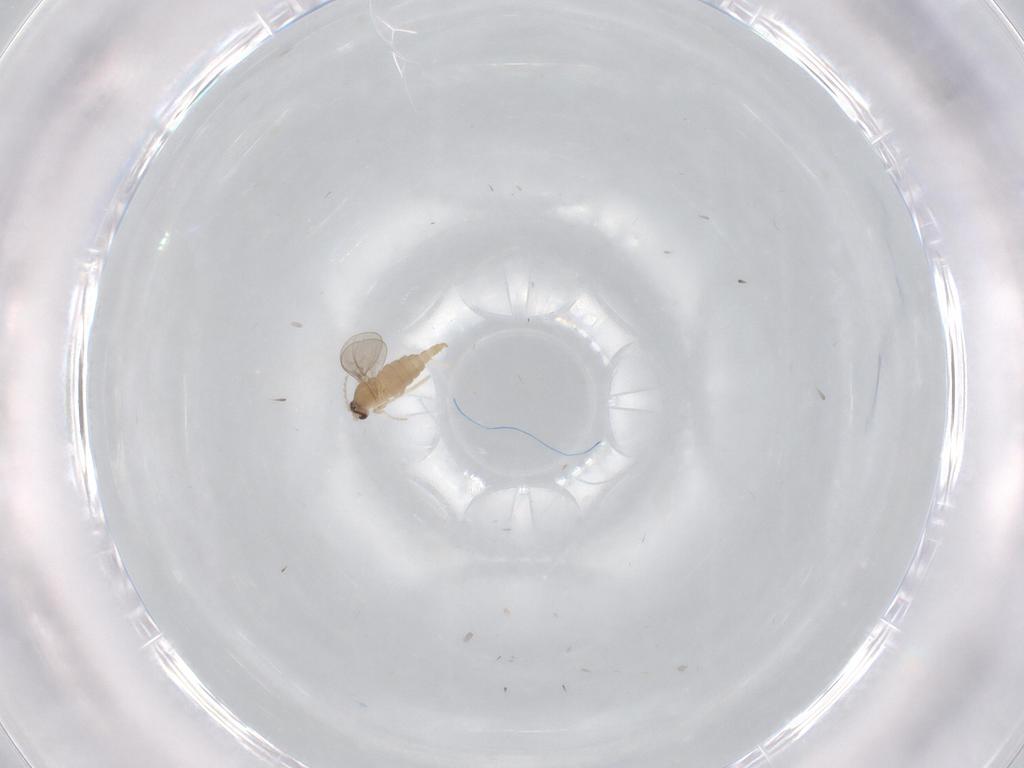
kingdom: Animalia
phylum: Arthropoda
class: Insecta
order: Diptera
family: Cecidomyiidae
